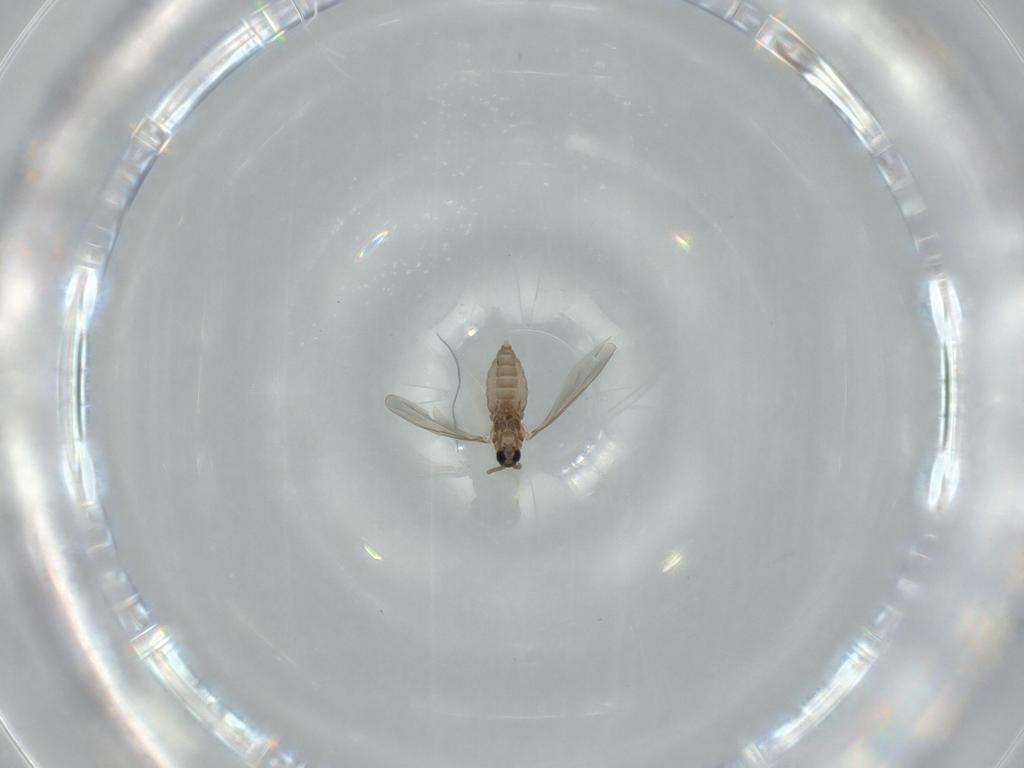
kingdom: Animalia
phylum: Arthropoda
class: Insecta
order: Diptera
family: Cecidomyiidae
